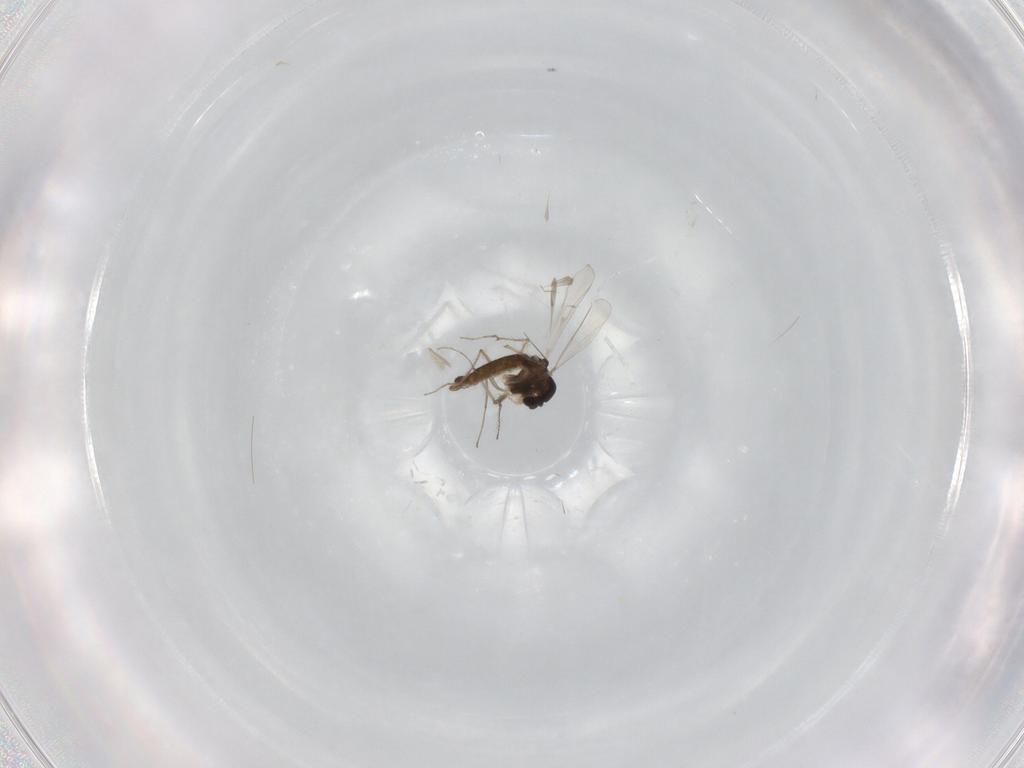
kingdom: Animalia
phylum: Arthropoda
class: Insecta
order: Diptera
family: Chironomidae
